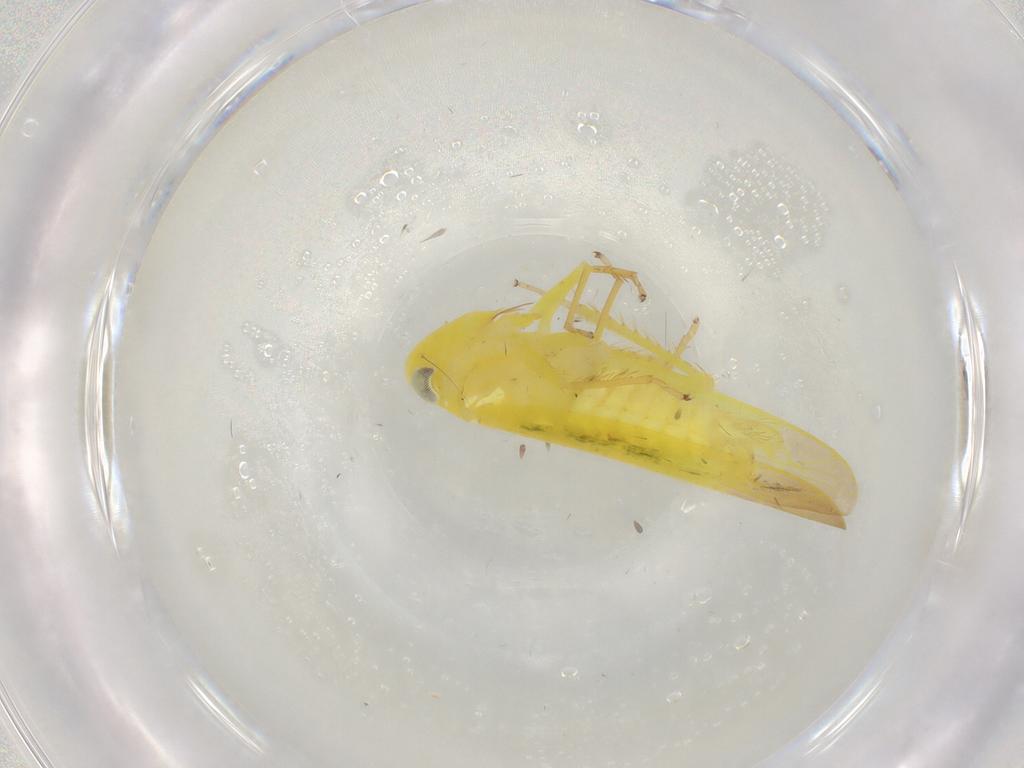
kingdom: Animalia
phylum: Arthropoda
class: Insecta
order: Hemiptera
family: Cicadellidae
